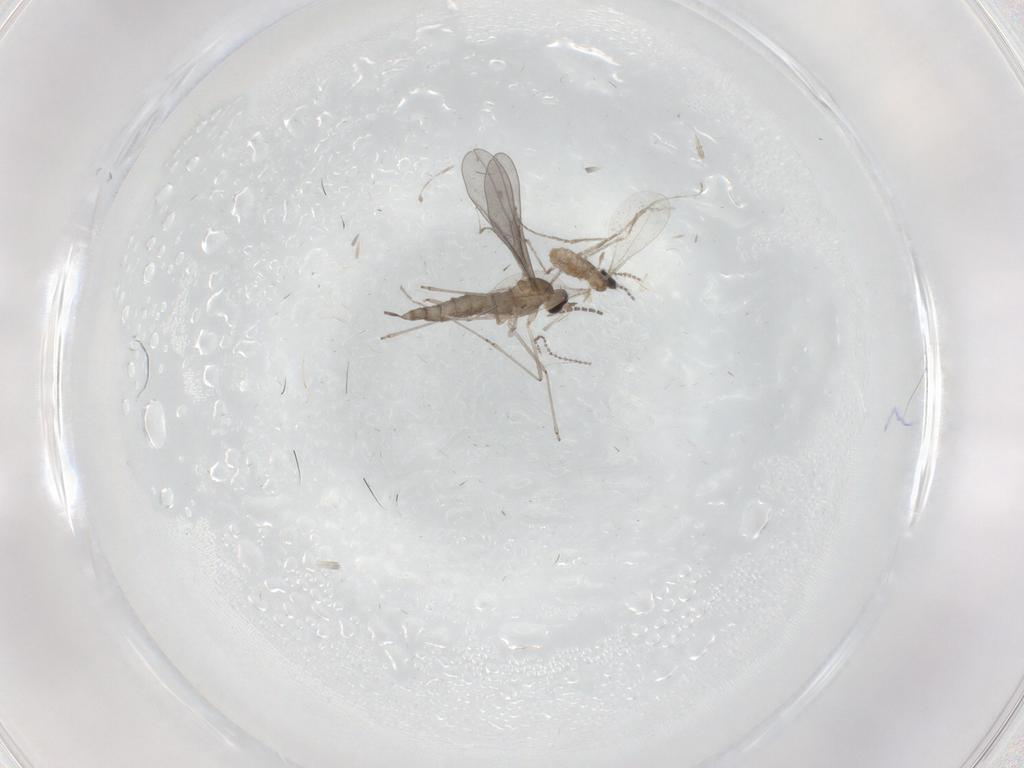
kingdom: Animalia
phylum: Arthropoda
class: Insecta
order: Diptera
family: Cecidomyiidae
